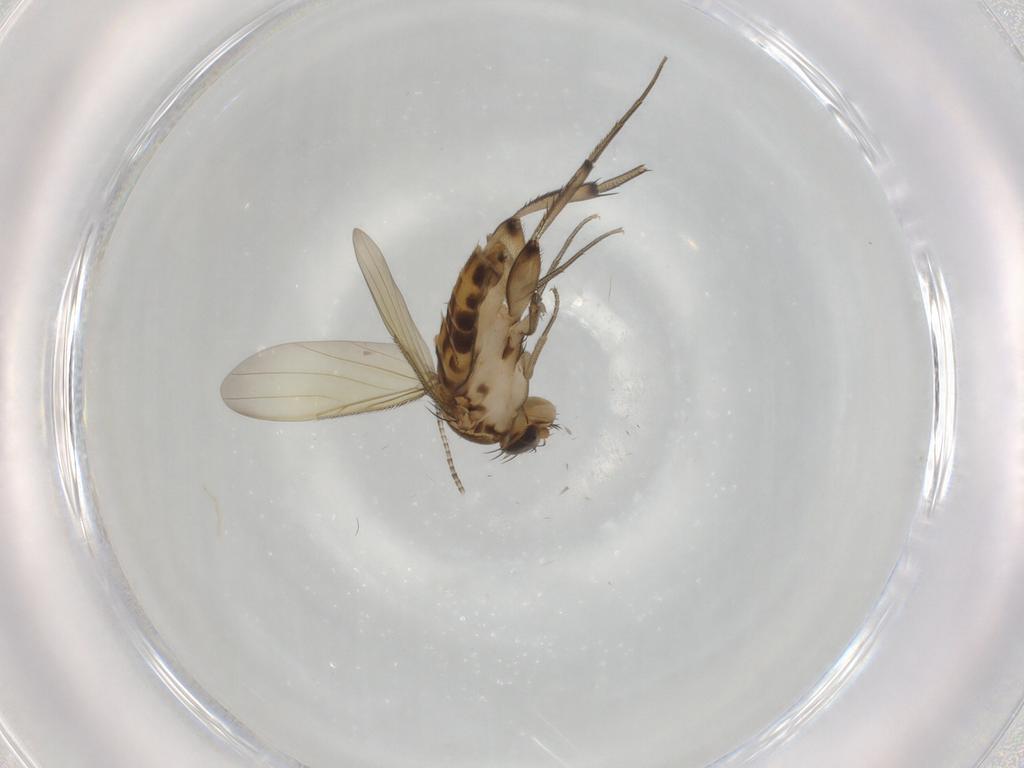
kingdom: Animalia
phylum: Arthropoda
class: Insecta
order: Diptera
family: Phoridae
